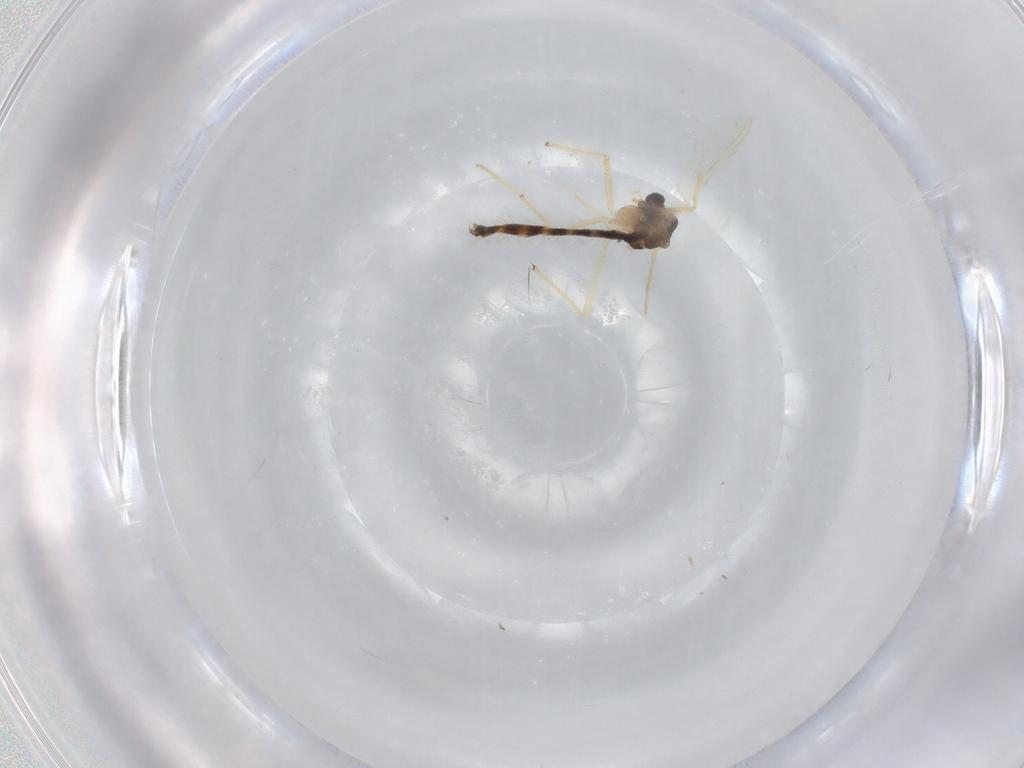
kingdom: Animalia
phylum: Arthropoda
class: Insecta
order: Diptera
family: Chironomidae
